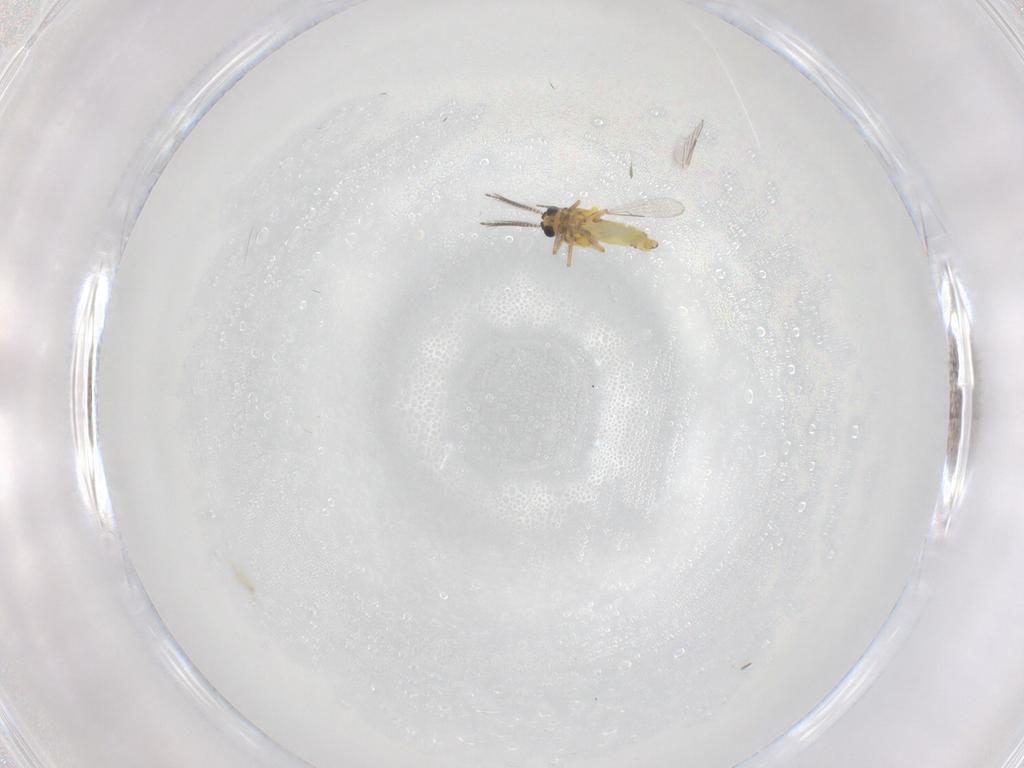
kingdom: Animalia
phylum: Arthropoda
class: Insecta
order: Diptera
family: Ceratopogonidae
